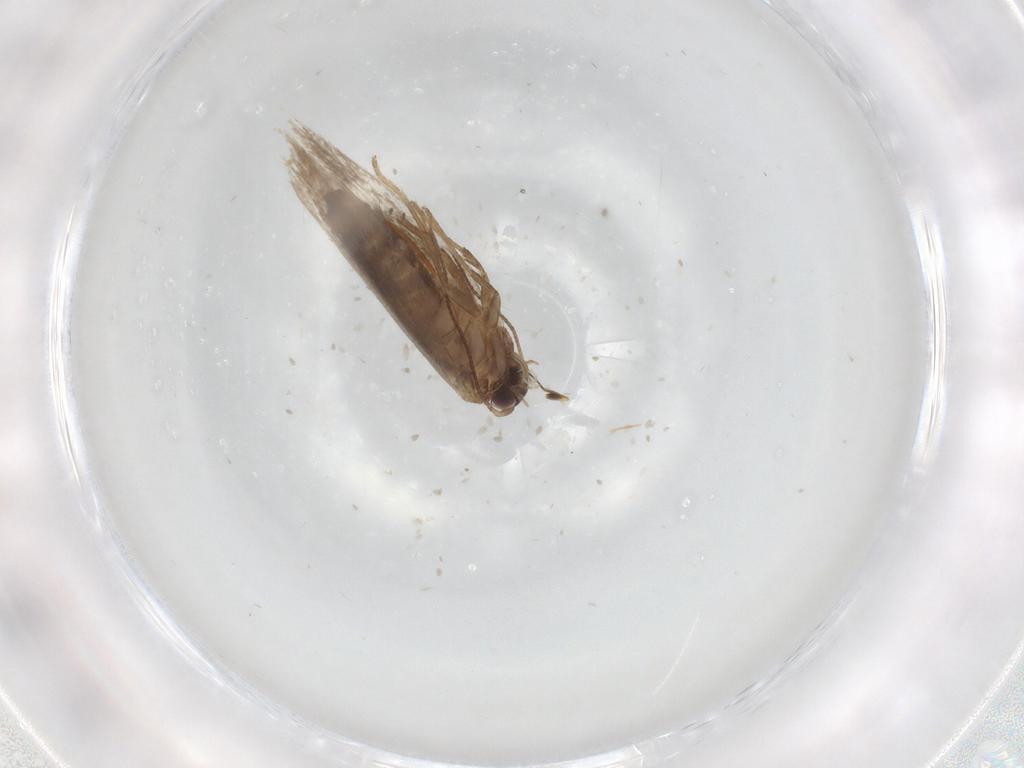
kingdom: Animalia
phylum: Arthropoda
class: Insecta
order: Lepidoptera
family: Nepticulidae
